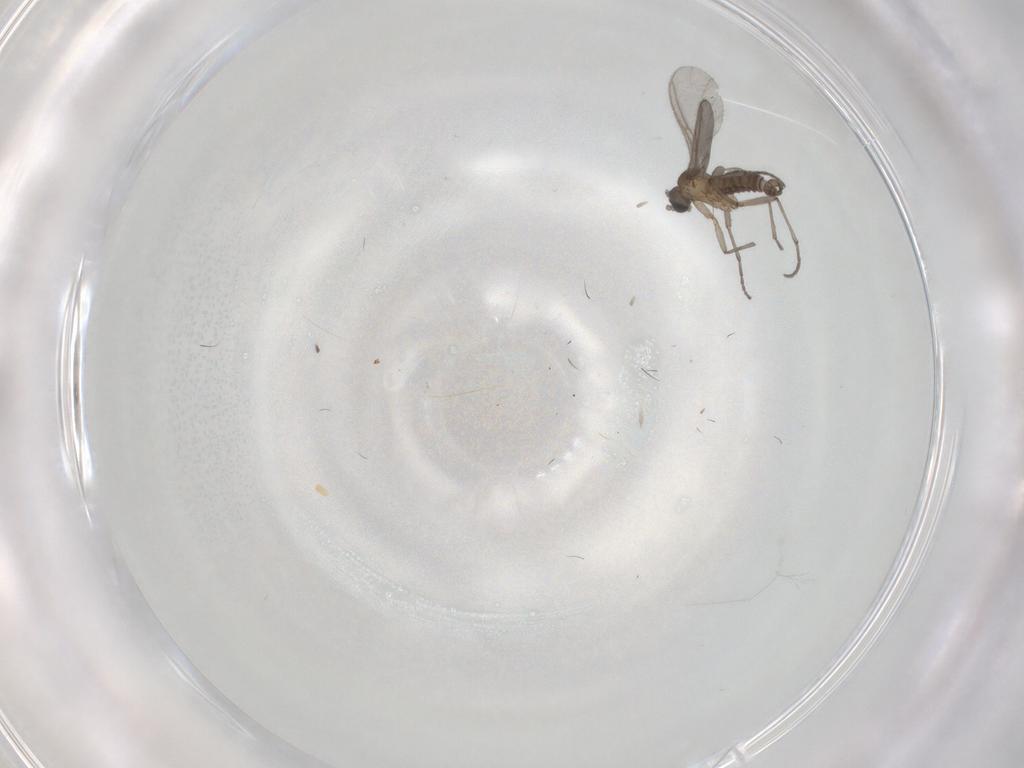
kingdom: Animalia
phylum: Arthropoda
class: Insecta
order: Diptera
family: Sciaridae
